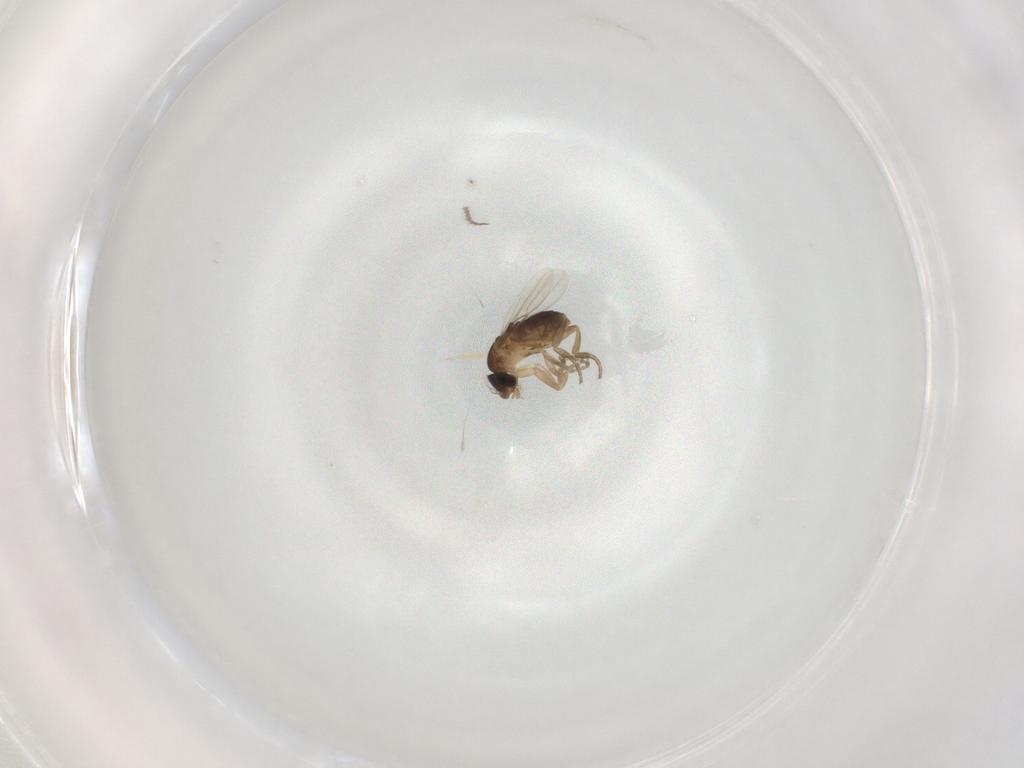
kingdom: Animalia
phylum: Arthropoda
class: Insecta
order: Diptera
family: Chloropidae
